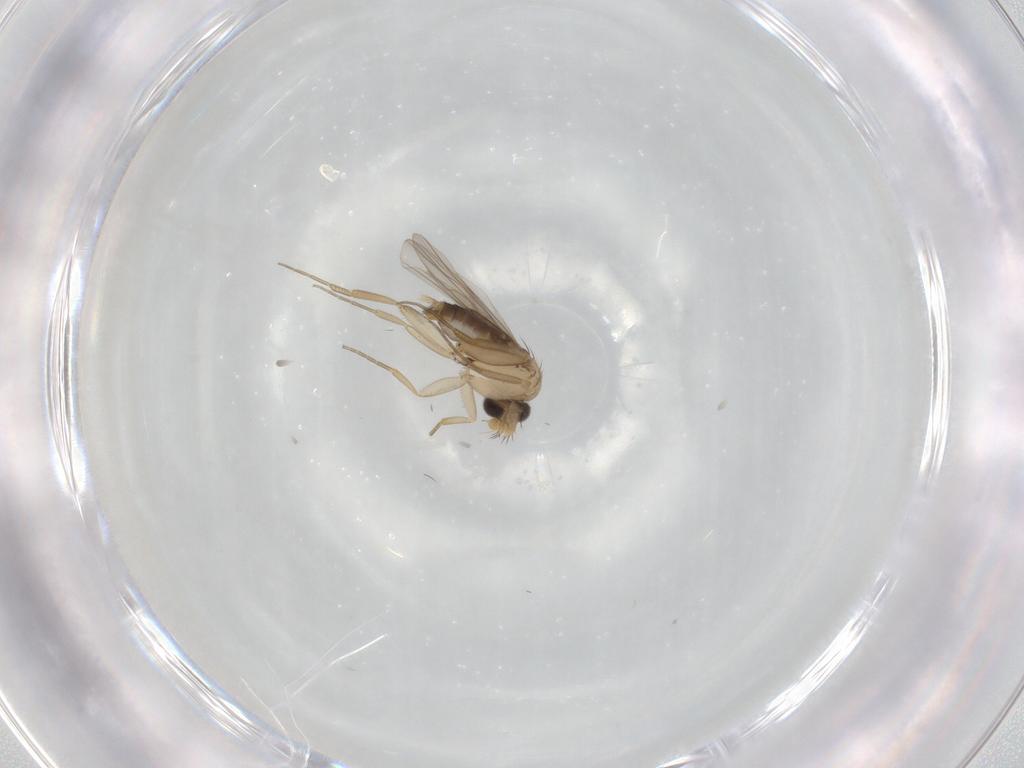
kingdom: Animalia
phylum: Arthropoda
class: Insecta
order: Diptera
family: Phoridae
